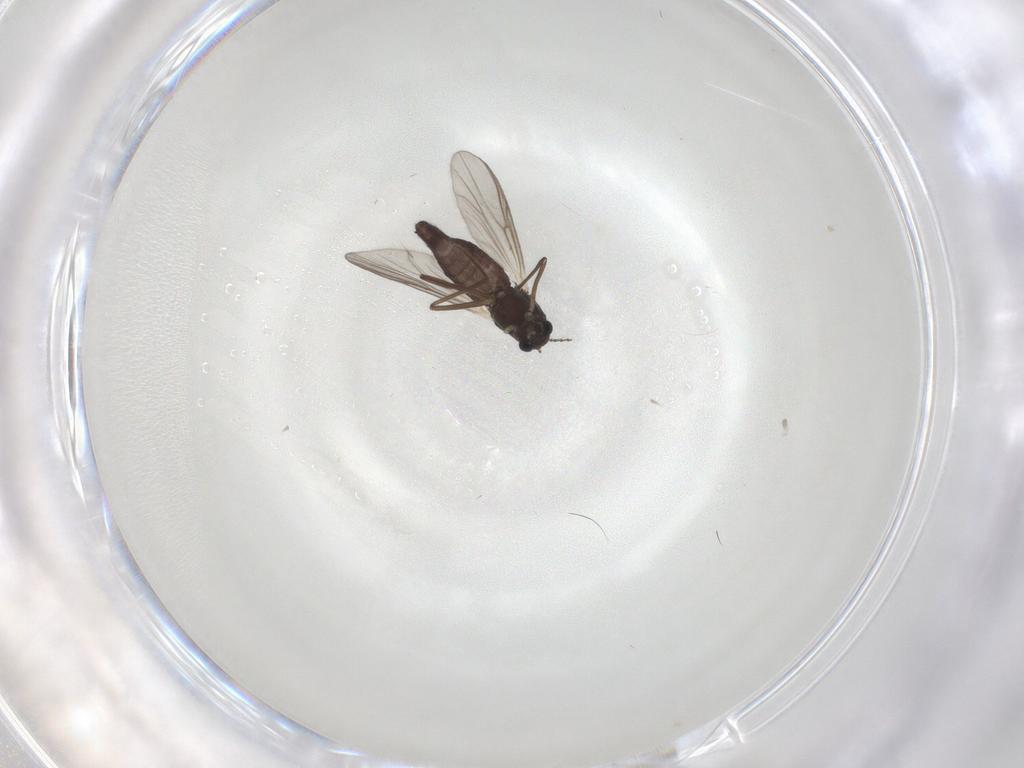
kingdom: Animalia
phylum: Arthropoda
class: Insecta
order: Diptera
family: Chironomidae
